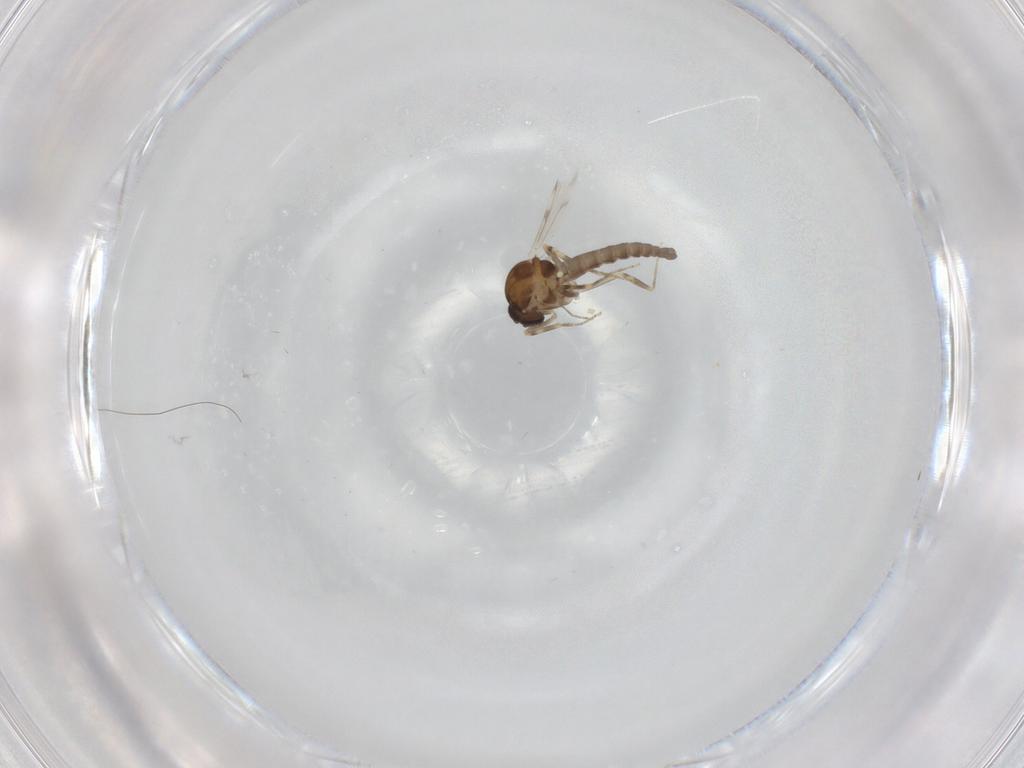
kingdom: Animalia
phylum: Arthropoda
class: Insecta
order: Diptera
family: Ceratopogonidae
